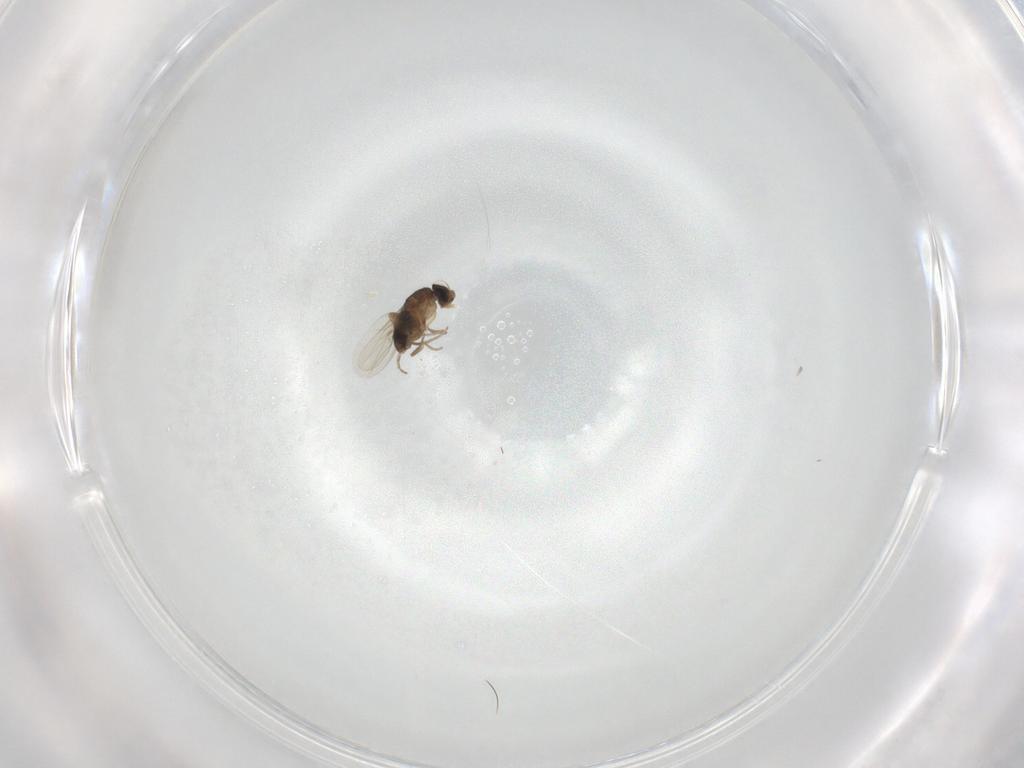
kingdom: Animalia
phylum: Arthropoda
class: Insecta
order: Diptera
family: Phoridae
